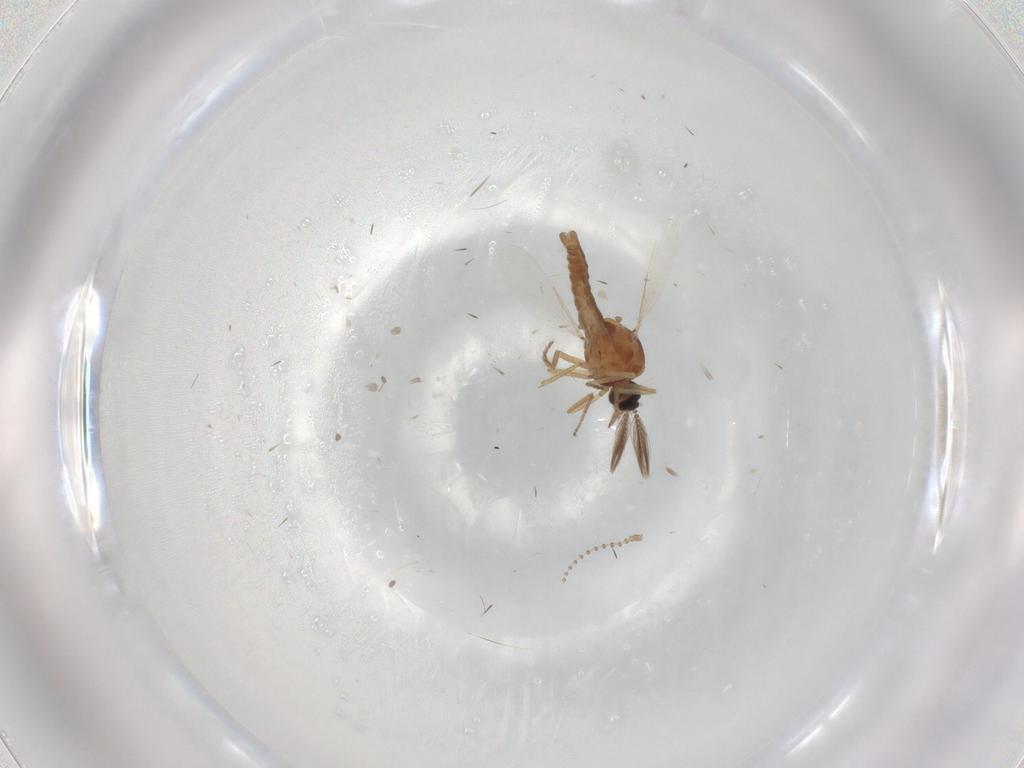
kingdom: Animalia
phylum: Arthropoda
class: Insecta
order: Diptera
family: Ceratopogonidae
